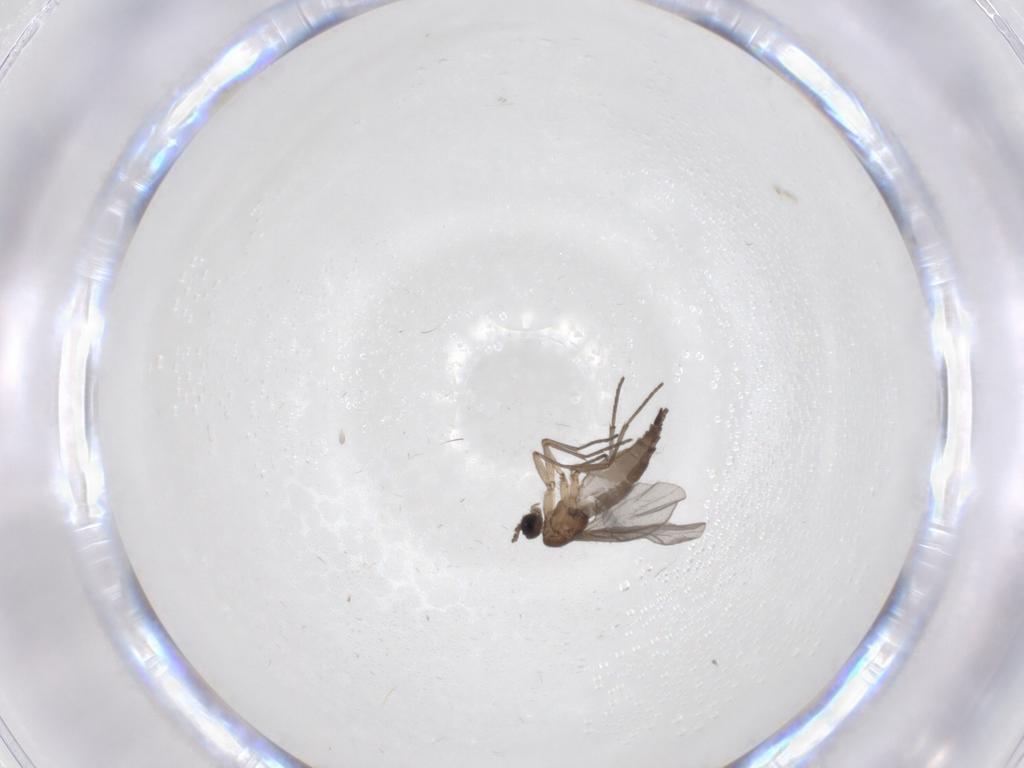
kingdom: Animalia
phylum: Arthropoda
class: Insecta
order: Diptera
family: Sciaridae
